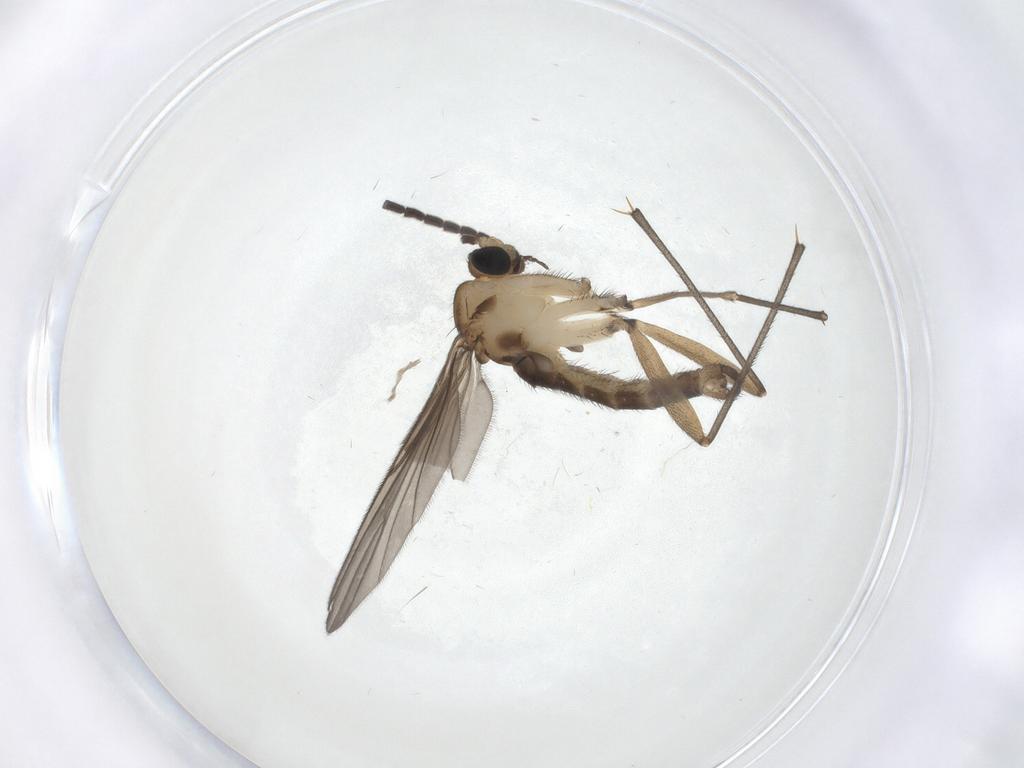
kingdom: Animalia
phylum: Arthropoda
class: Insecta
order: Diptera
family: Sciaridae
